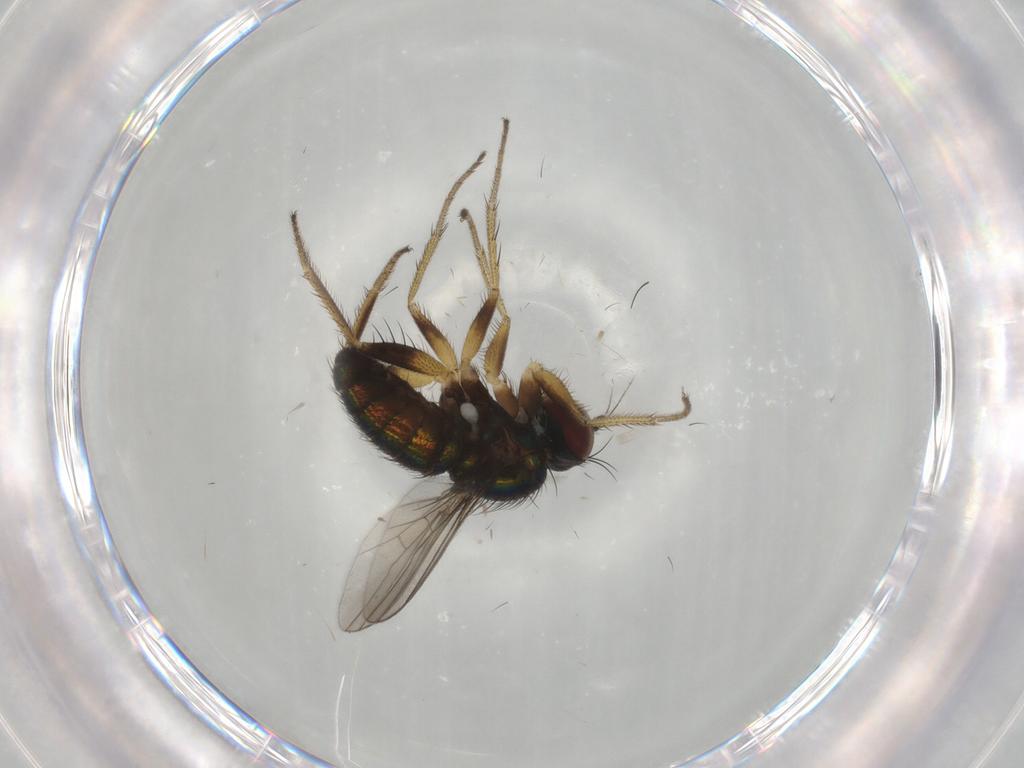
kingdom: Animalia
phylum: Arthropoda
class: Insecta
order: Diptera
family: Dolichopodidae
